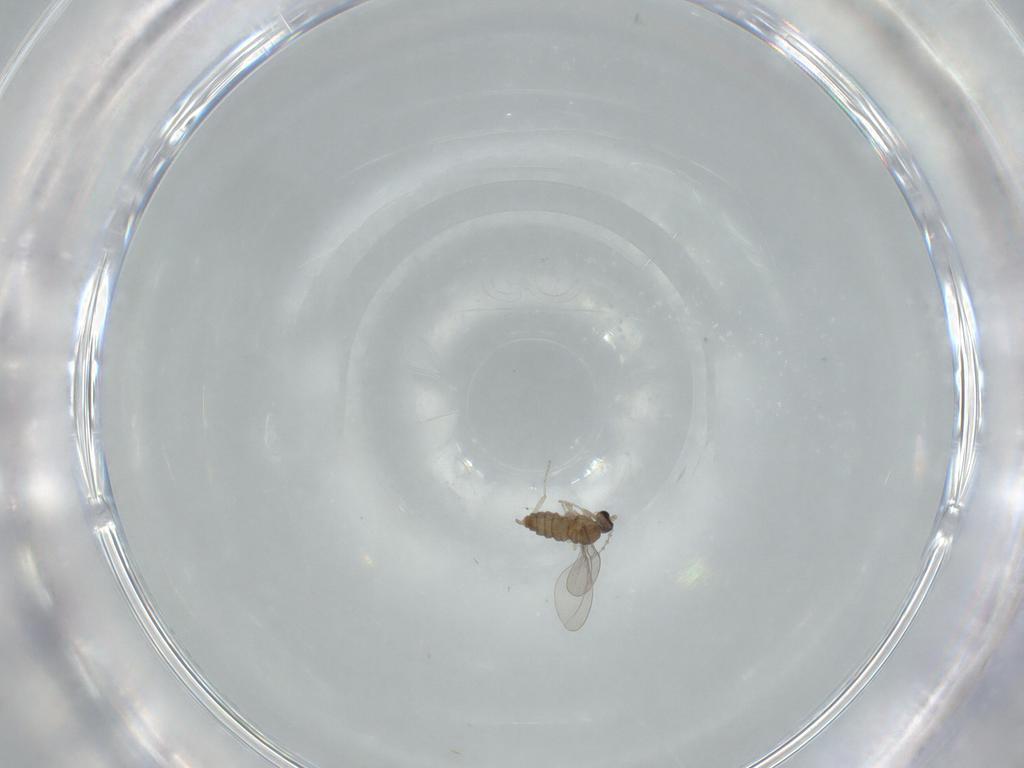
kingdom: Animalia
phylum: Arthropoda
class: Insecta
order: Diptera
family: Cecidomyiidae
